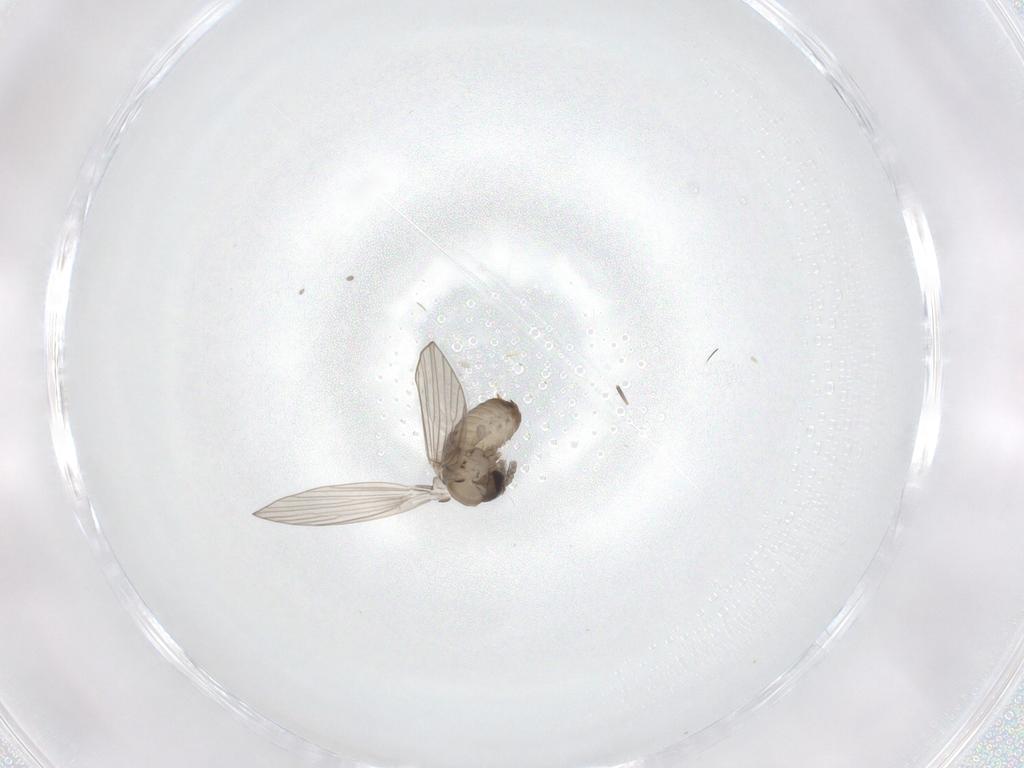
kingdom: Animalia
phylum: Arthropoda
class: Insecta
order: Diptera
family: Chironomidae
